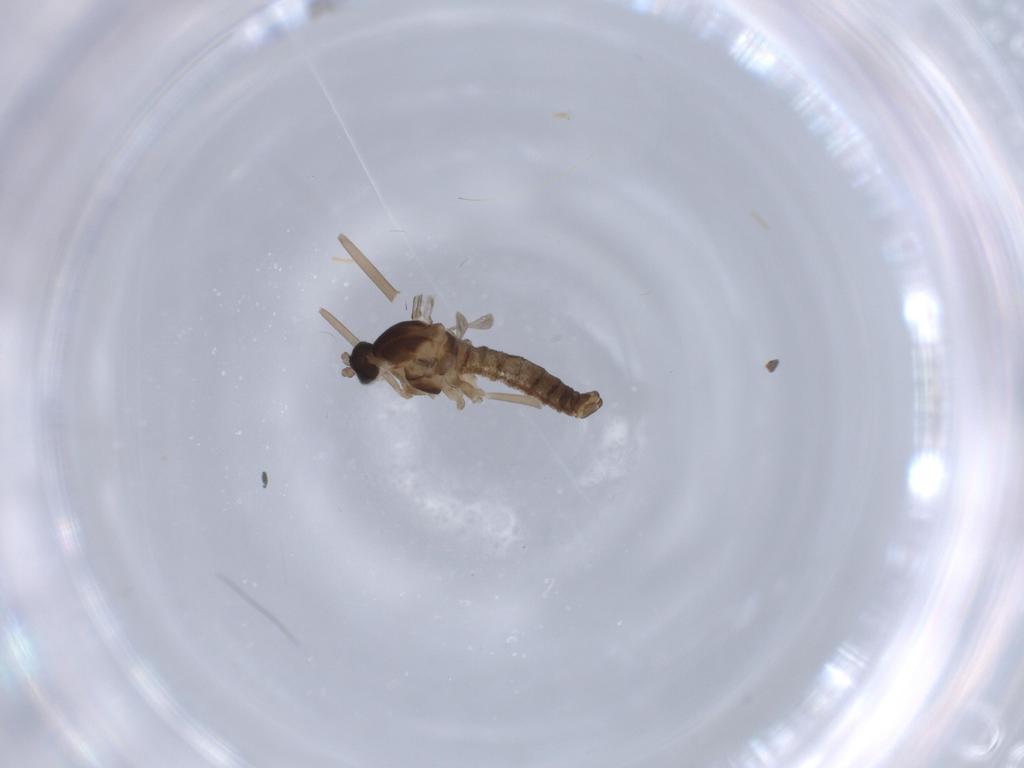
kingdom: Animalia
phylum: Arthropoda
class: Insecta
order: Diptera
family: Mycetophilidae
